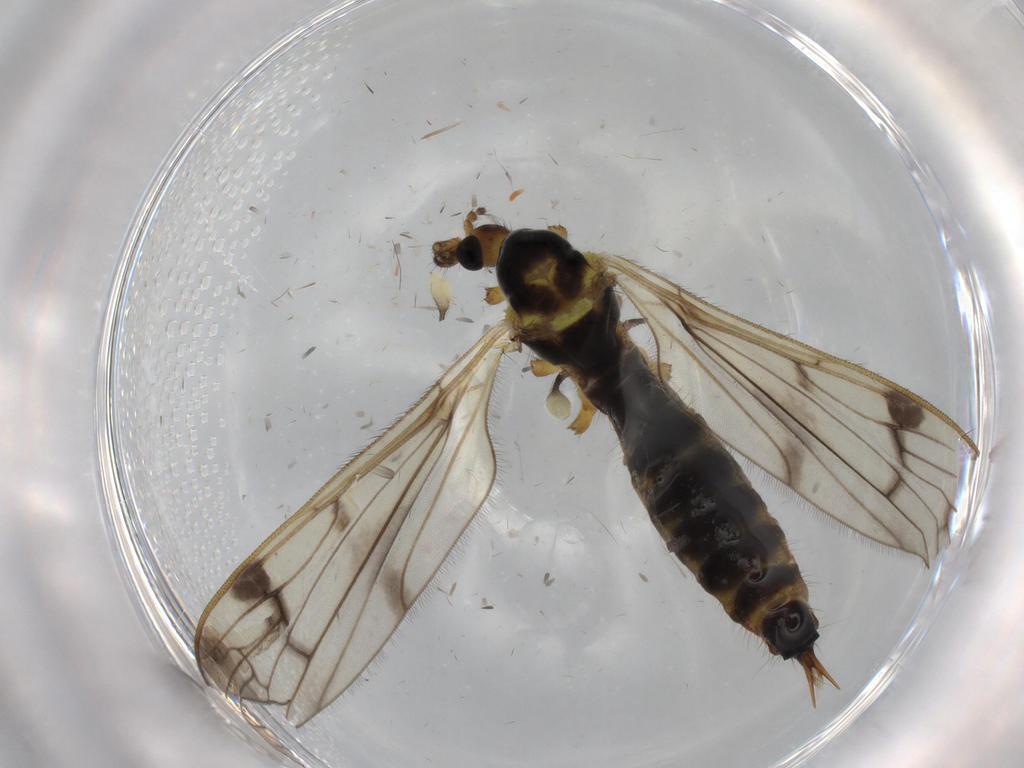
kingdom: Animalia
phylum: Arthropoda
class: Insecta
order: Diptera
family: Limoniidae
